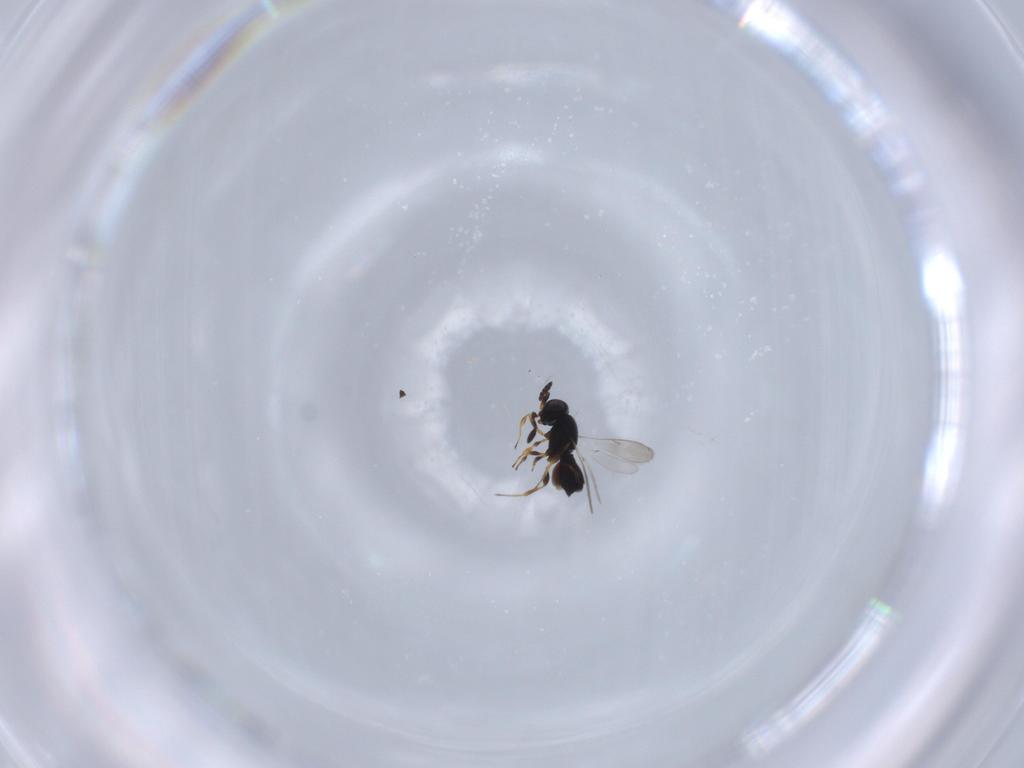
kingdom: Animalia
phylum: Arthropoda
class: Insecta
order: Hymenoptera
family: Scelionidae
